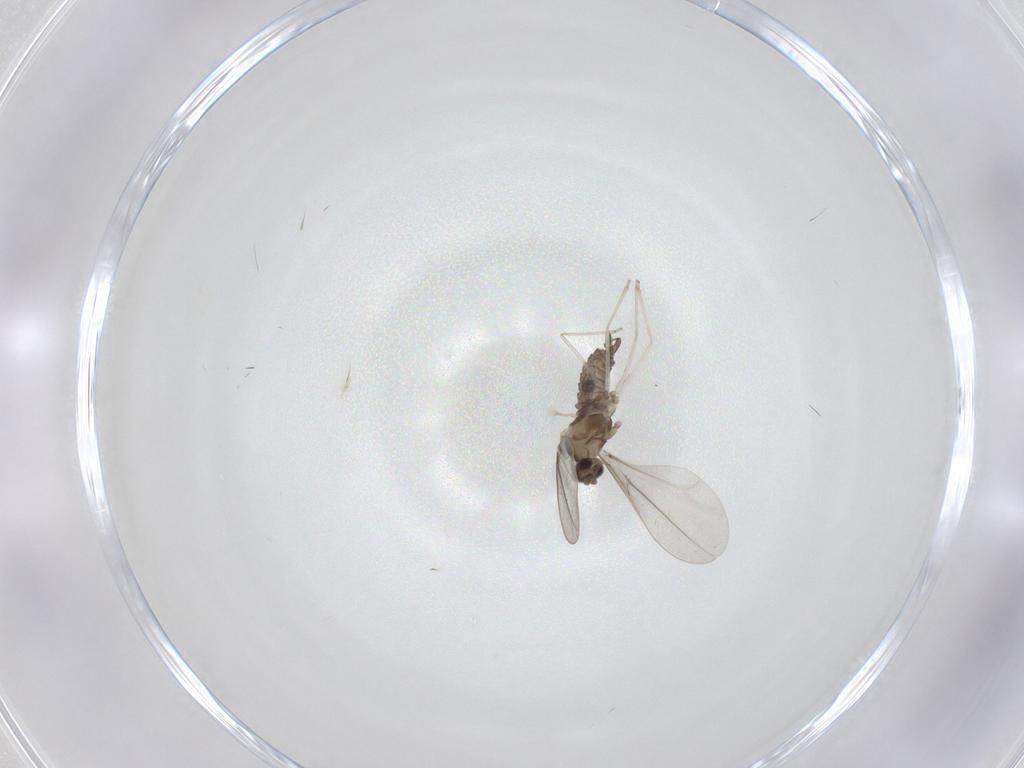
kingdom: Animalia
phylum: Arthropoda
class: Insecta
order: Diptera
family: Cecidomyiidae
